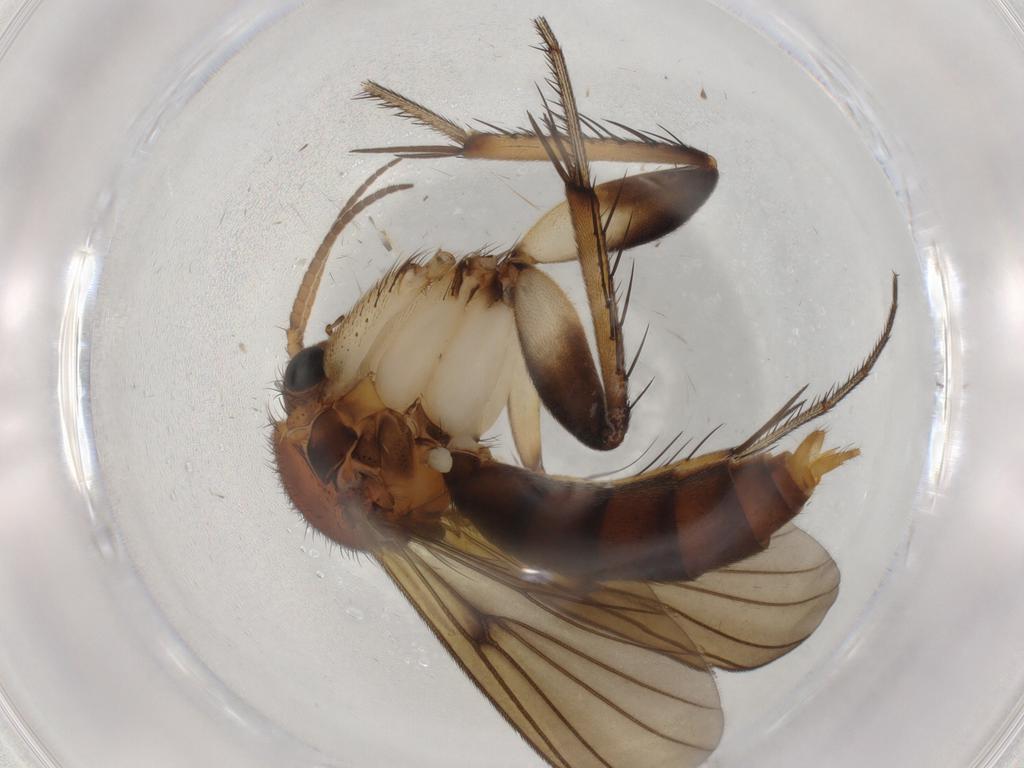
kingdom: Animalia
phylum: Arthropoda
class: Insecta
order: Diptera
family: Mycetophilidae
